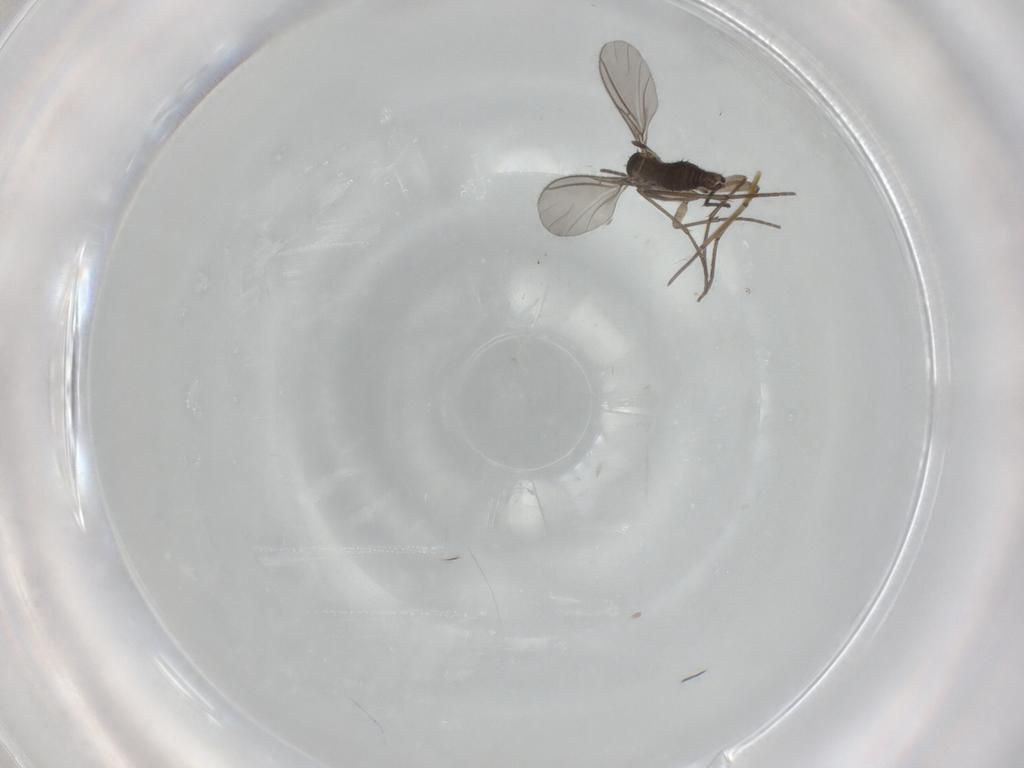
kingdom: Animalia
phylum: Arthropoda
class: Insecta
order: Diptera
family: Sciaridae
